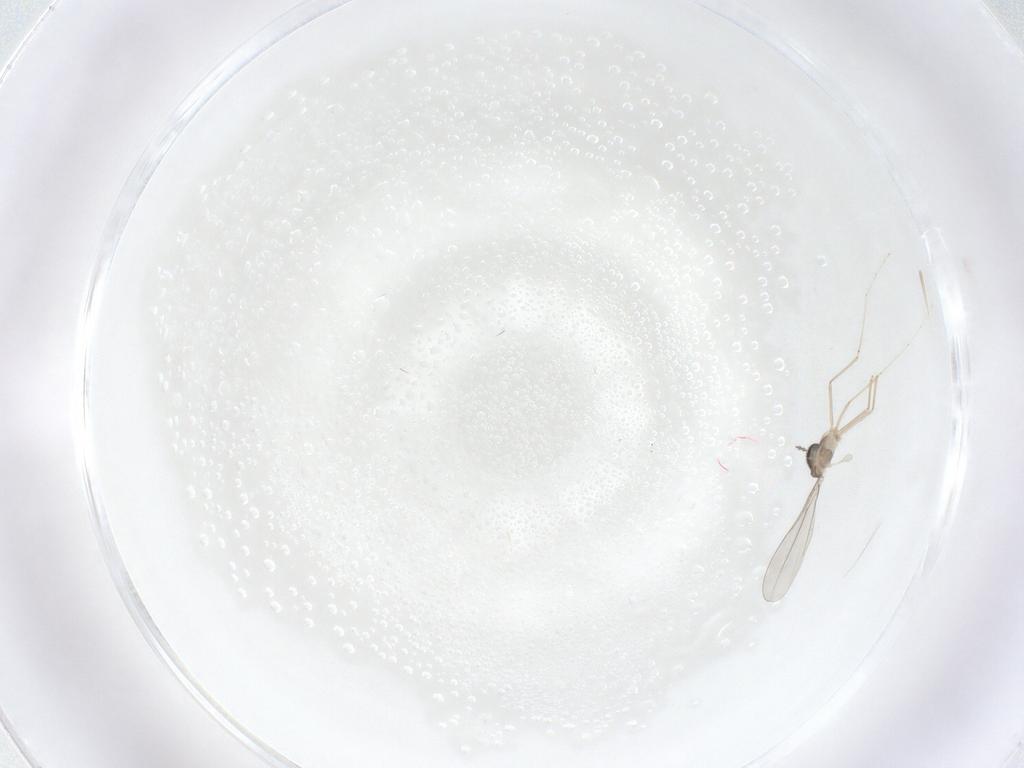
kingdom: Animalia
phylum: Arthropoda
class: Insecta
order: Diptera
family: Cecidomyiidae
